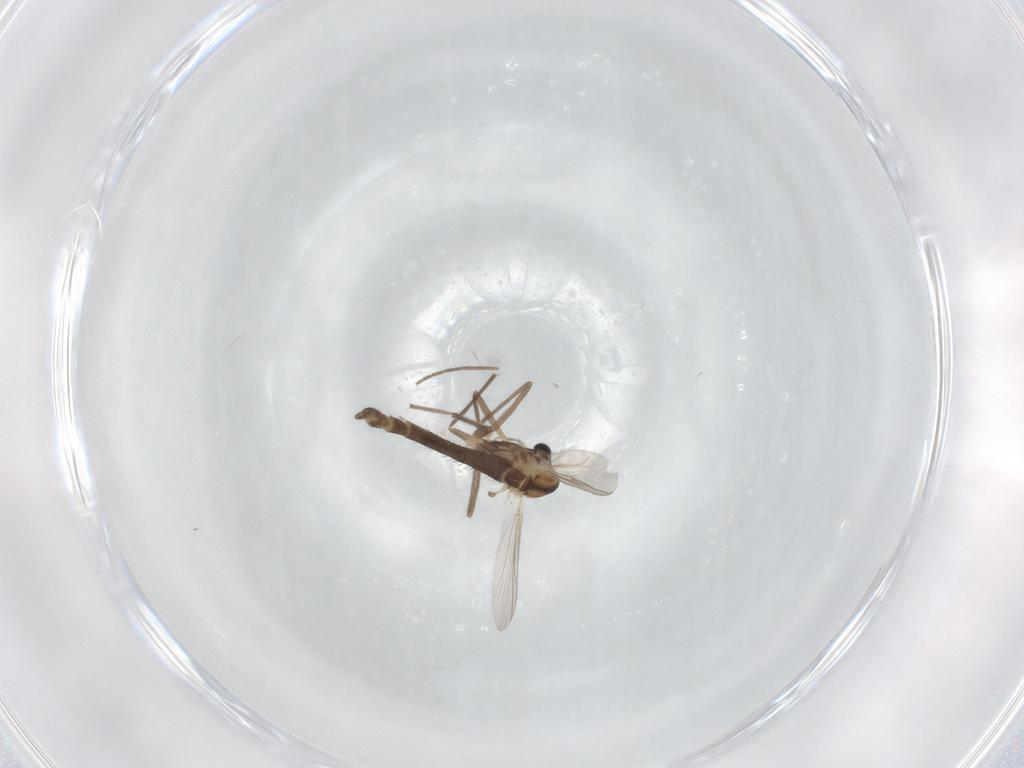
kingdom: Animalia
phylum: Arthropoda
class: Insecta
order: Diptera
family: Chironomidae
